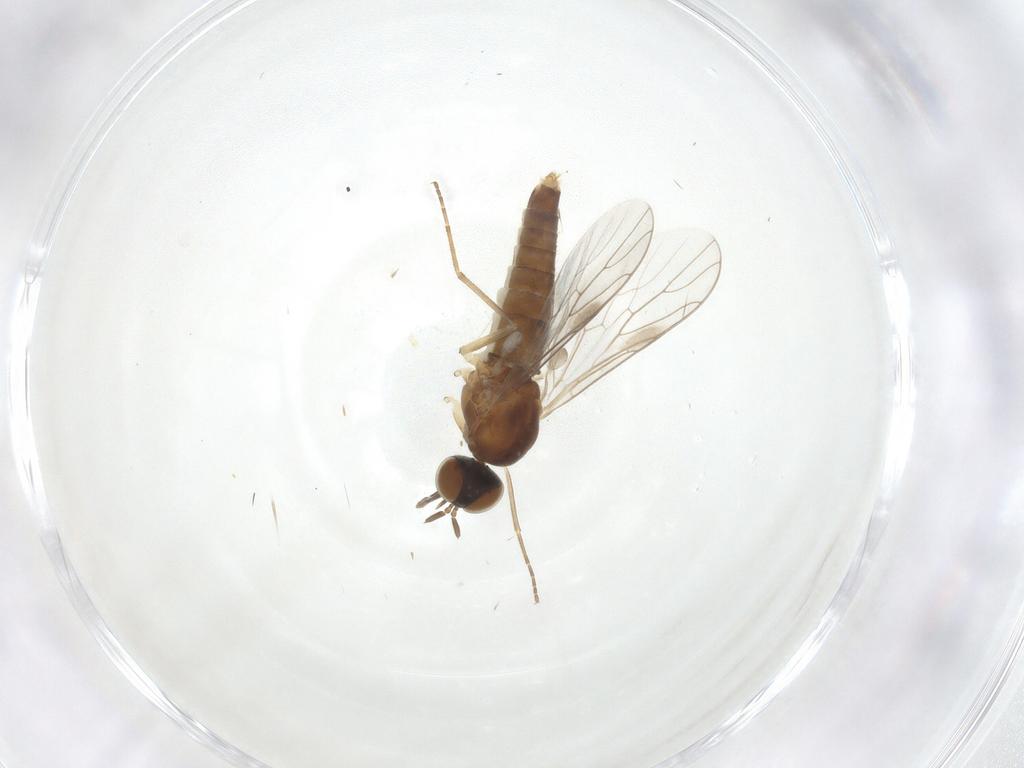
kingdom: Animalia
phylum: Arthropoda
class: Insecta
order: Diptera
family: Scenopinidae
